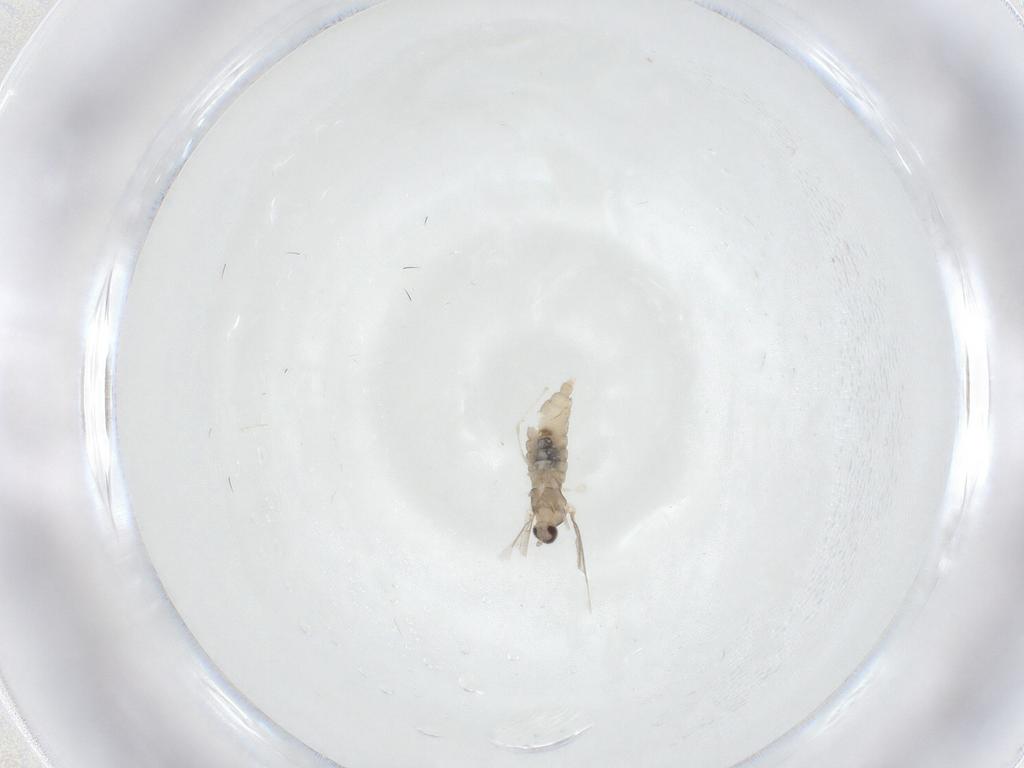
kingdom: Animalia
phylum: Arthropoda
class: Insecta
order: Diptera
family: Cecidomyiidae
